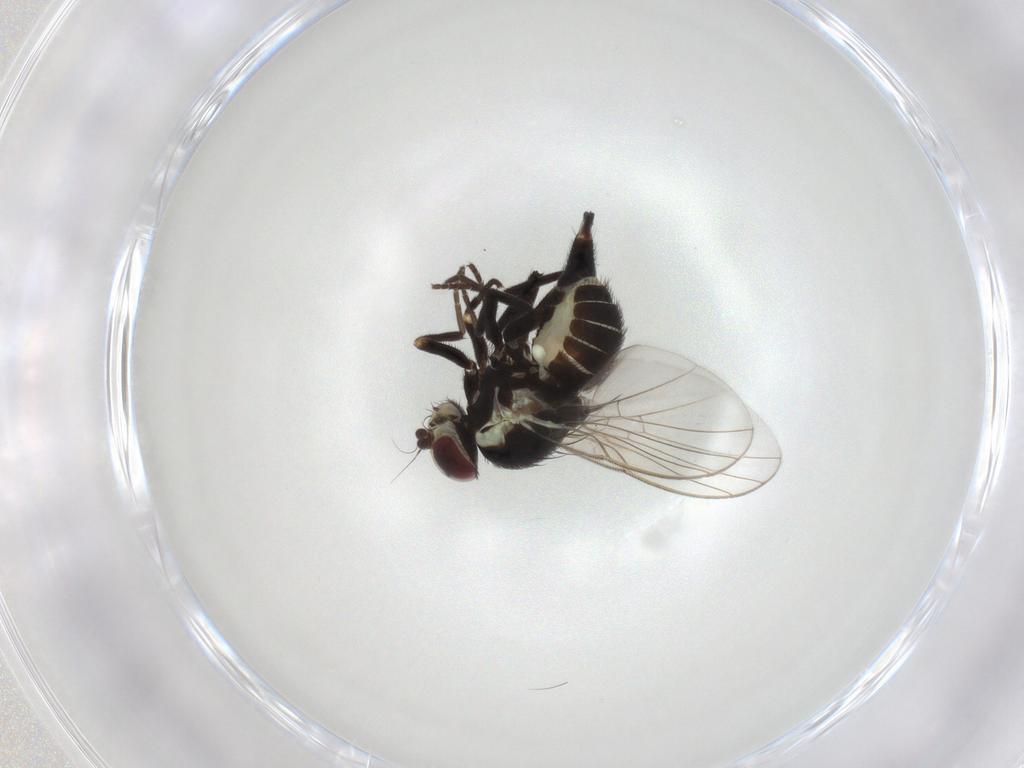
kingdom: Animalia
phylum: Arthropoda
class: Insecta
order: Diptera
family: Agromyzidae
